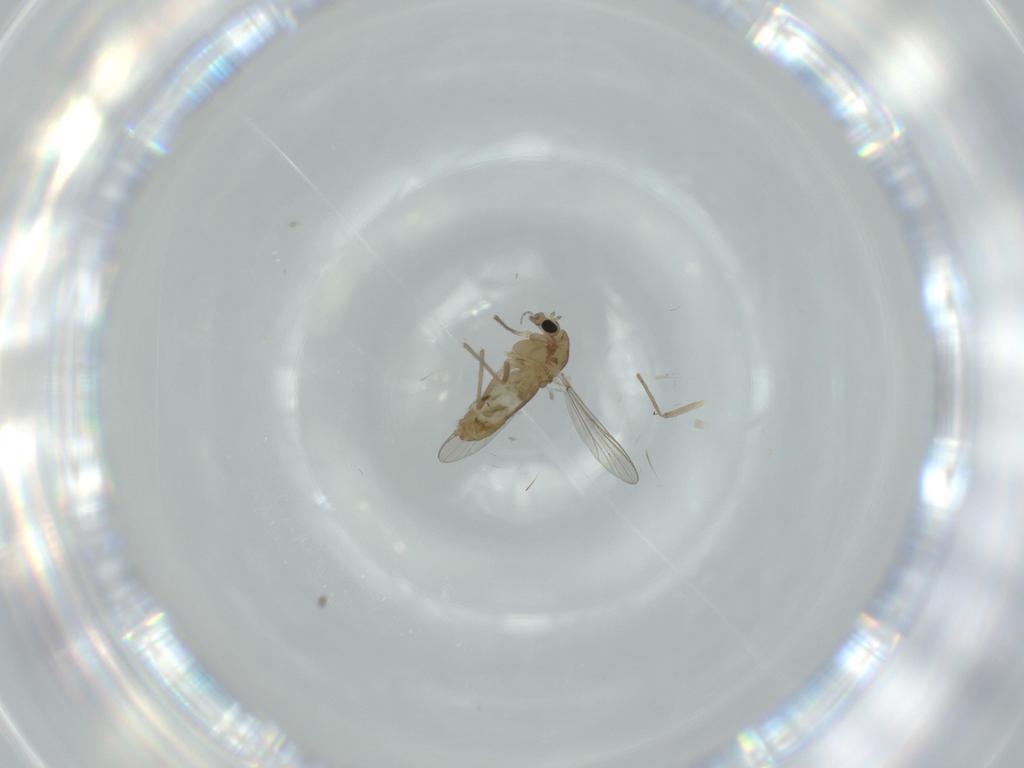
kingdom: Animalia
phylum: Arthropoda
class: Insecta
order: Diptera
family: Chironomidae
